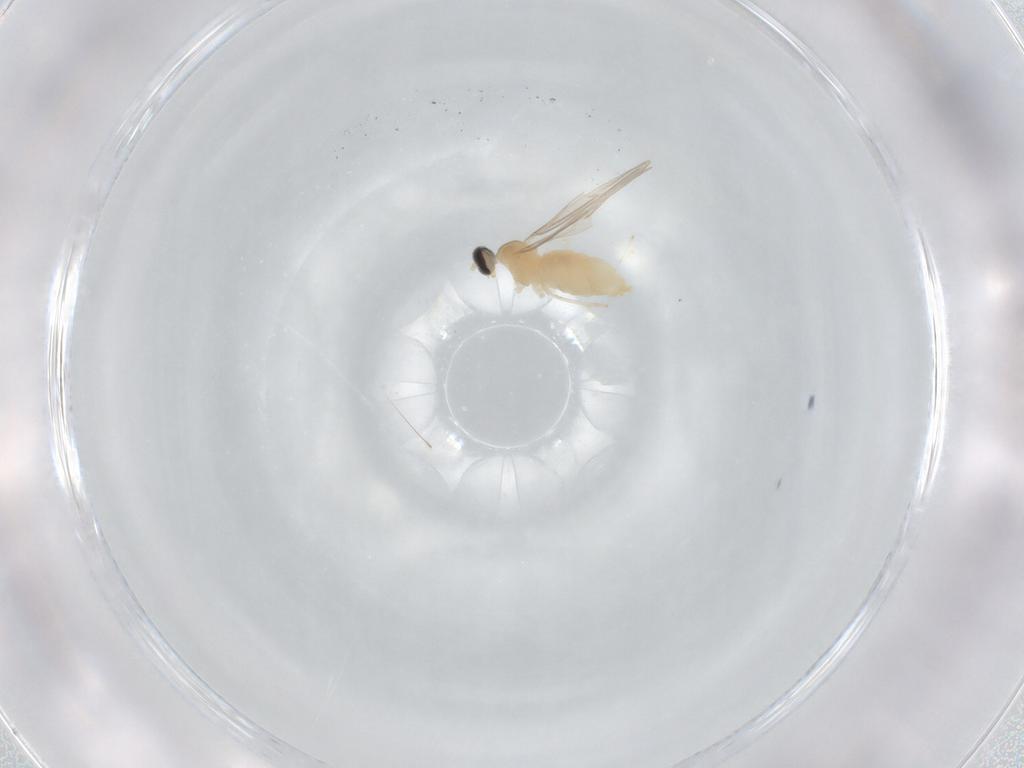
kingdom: Animalia
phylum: Arthropoda
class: Insecta
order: Diptera
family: Cecidomyiidae
